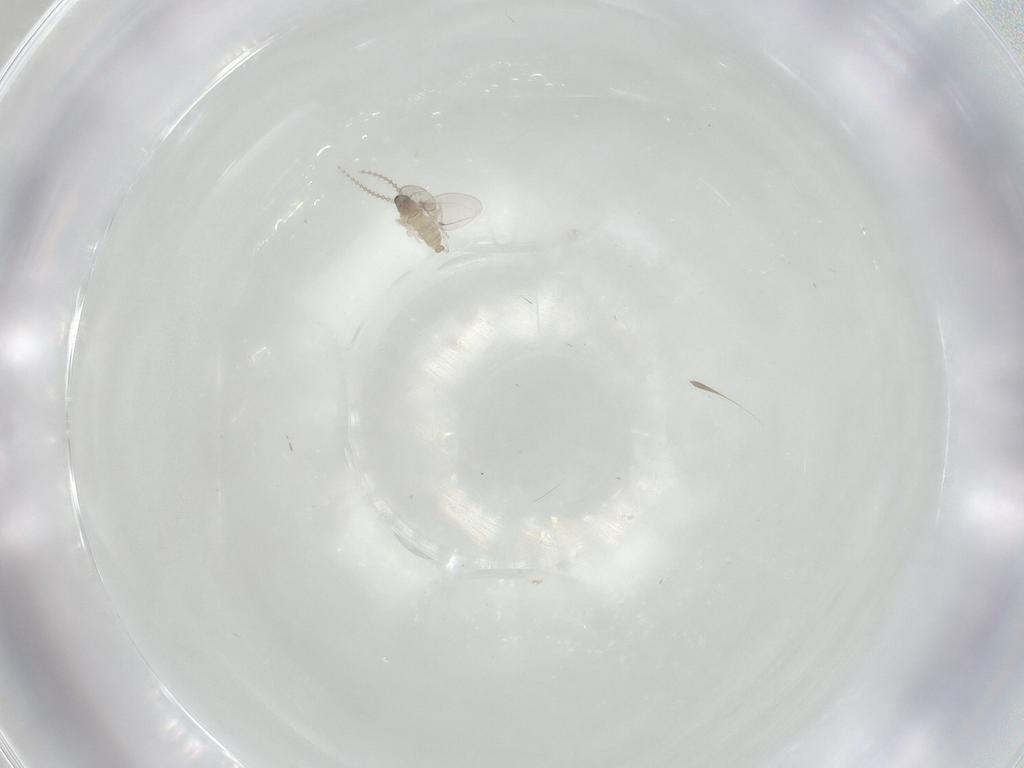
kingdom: Animalia
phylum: Arthropoda
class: Insecta
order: Diptera
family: Cecidomyiidae
